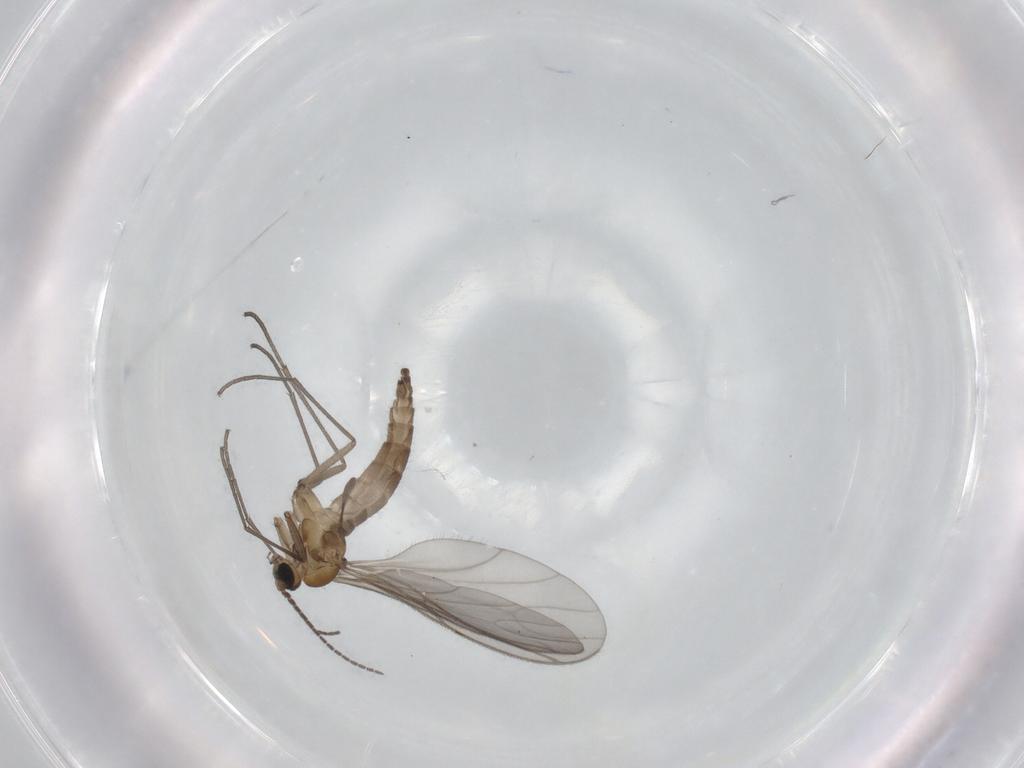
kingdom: Animalia
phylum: Arthropoda
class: Insecta
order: Diptera
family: Sciaridae
